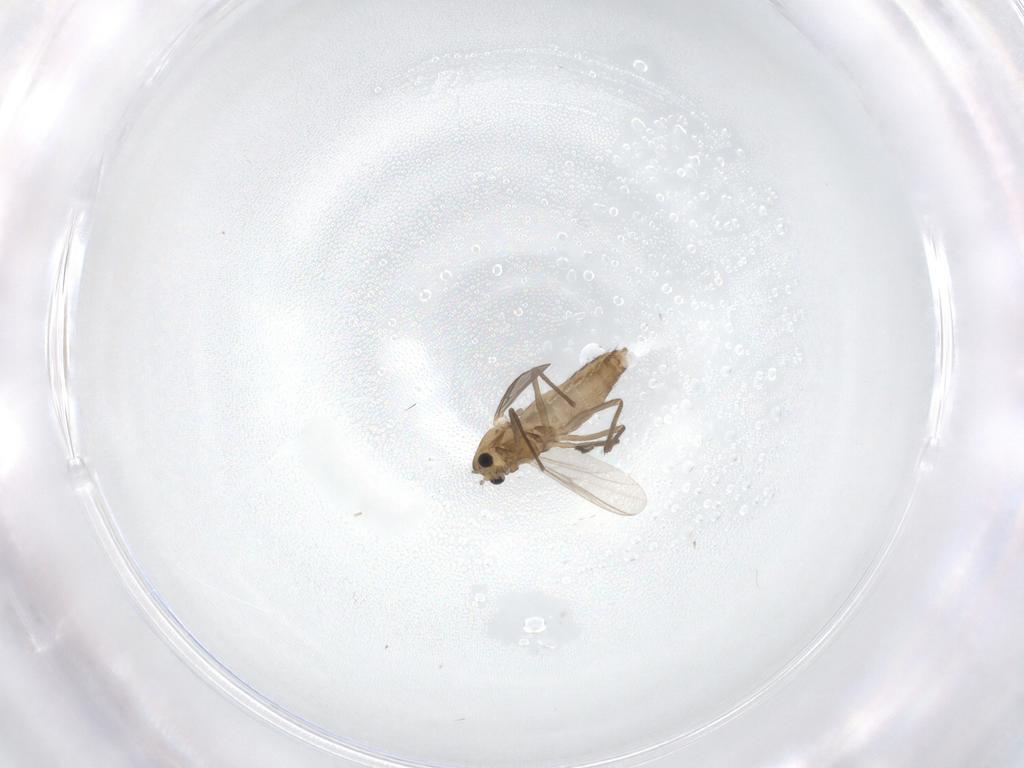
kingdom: Animalia
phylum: Arthropoda
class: Insecta
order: Diptera
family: Chironomidae
